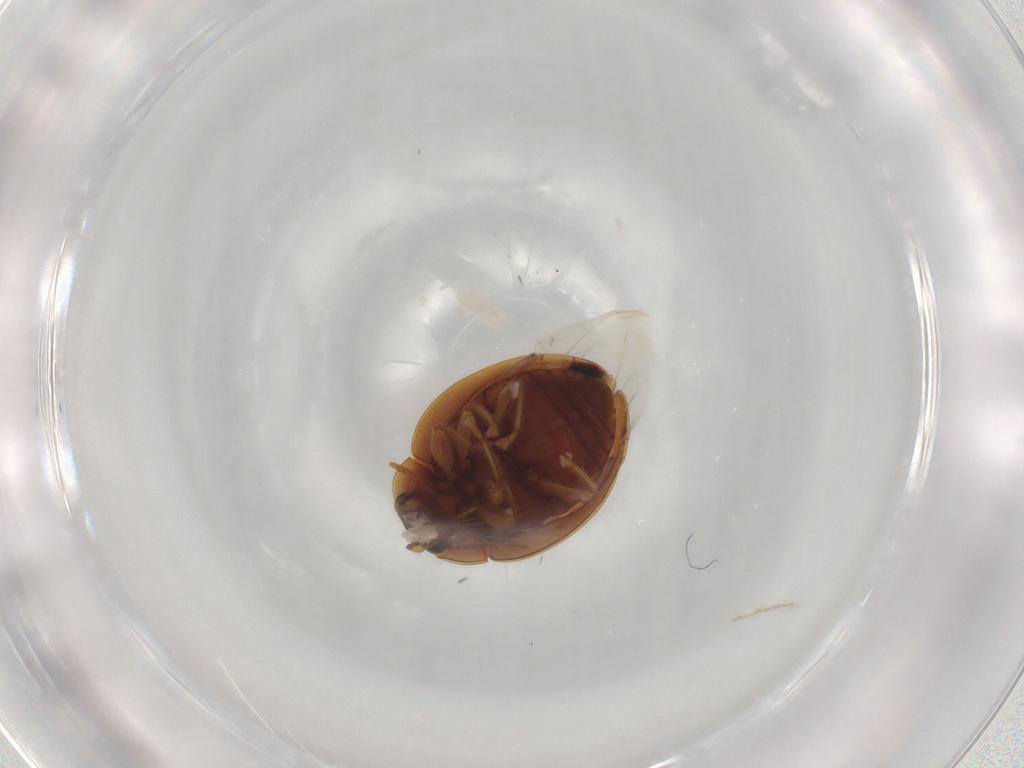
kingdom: Animalia
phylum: Arthropoda
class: Insecta
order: Coleoptera
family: Coccinellidae
